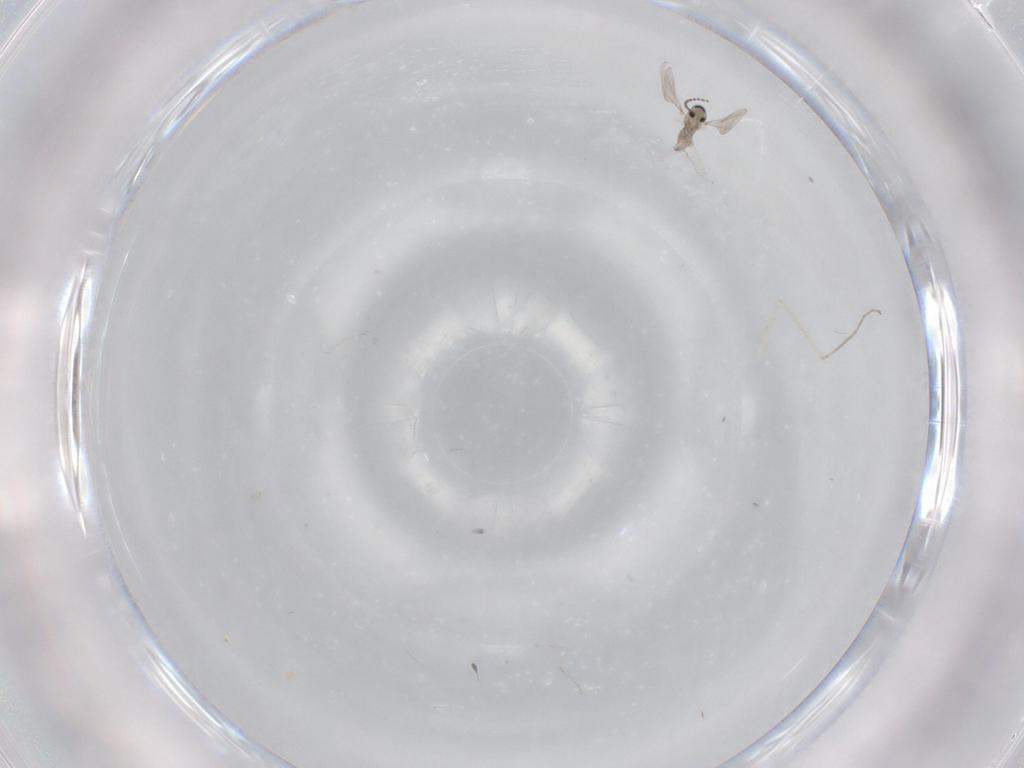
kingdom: Animalia
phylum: Arthropoda
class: Insecta
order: Diptera
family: Cecidomyiidae
